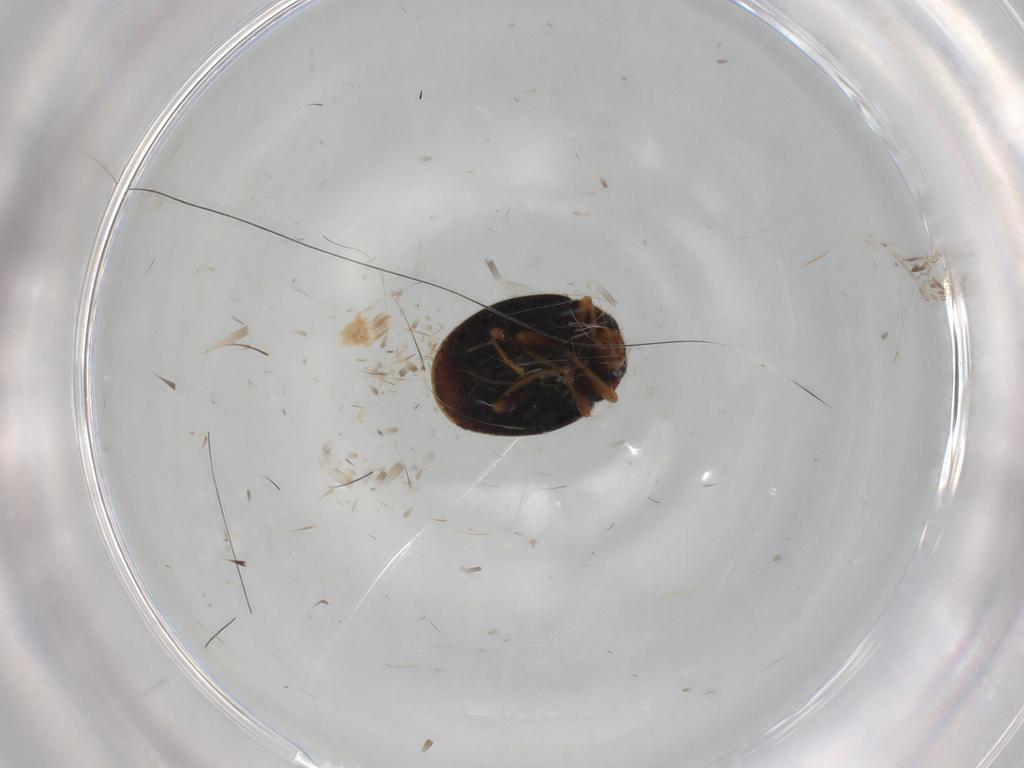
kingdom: Animalia
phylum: Arthropoda
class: Insecta
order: Coleoptera
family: Coccinellidae
